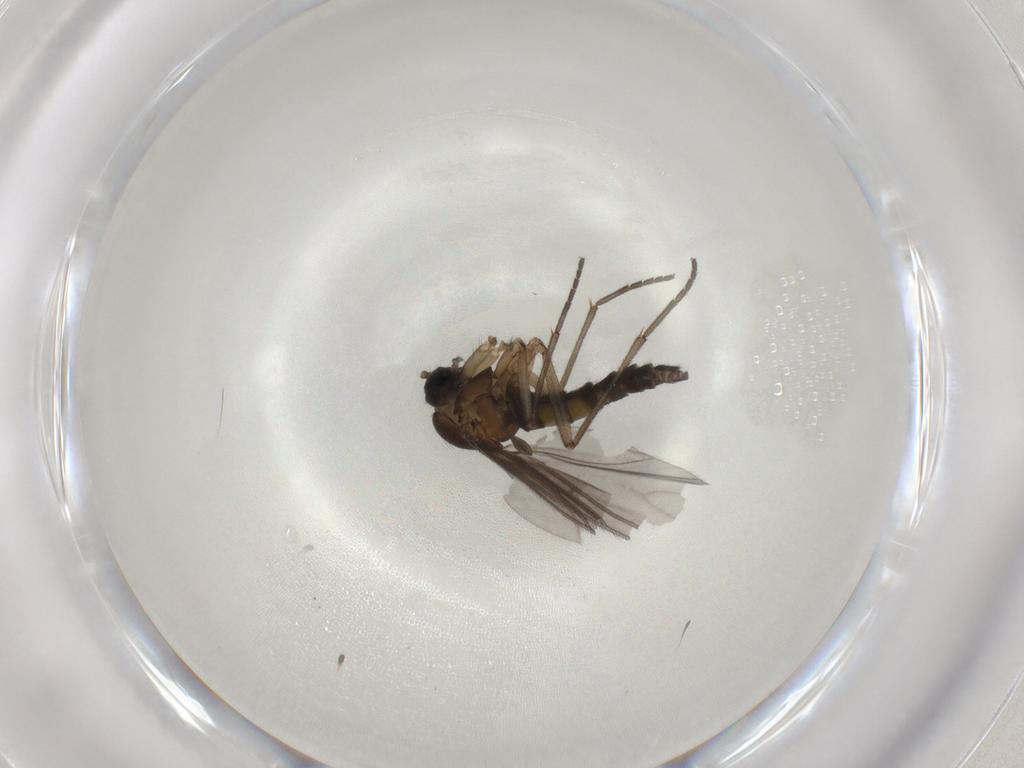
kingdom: Animalia
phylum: Arthropoda
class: Insecta
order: Diptera
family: Sciaridae
